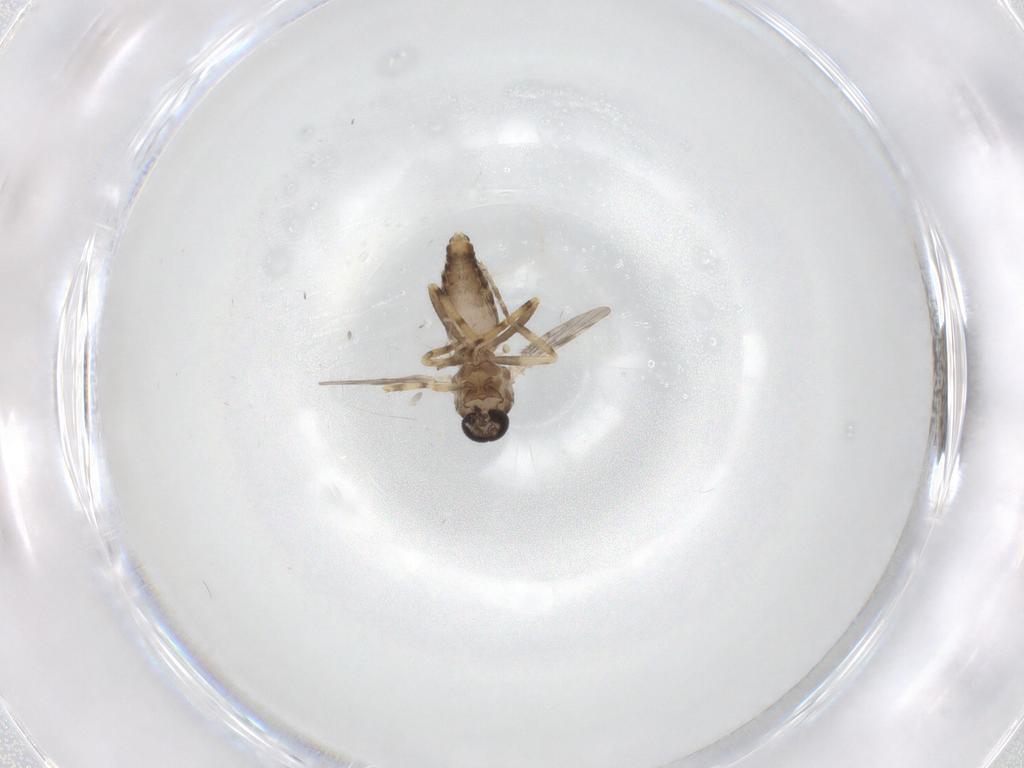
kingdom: Animalia
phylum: Arthropoda
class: Insecta
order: Diptera
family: Ceratopogonidae
